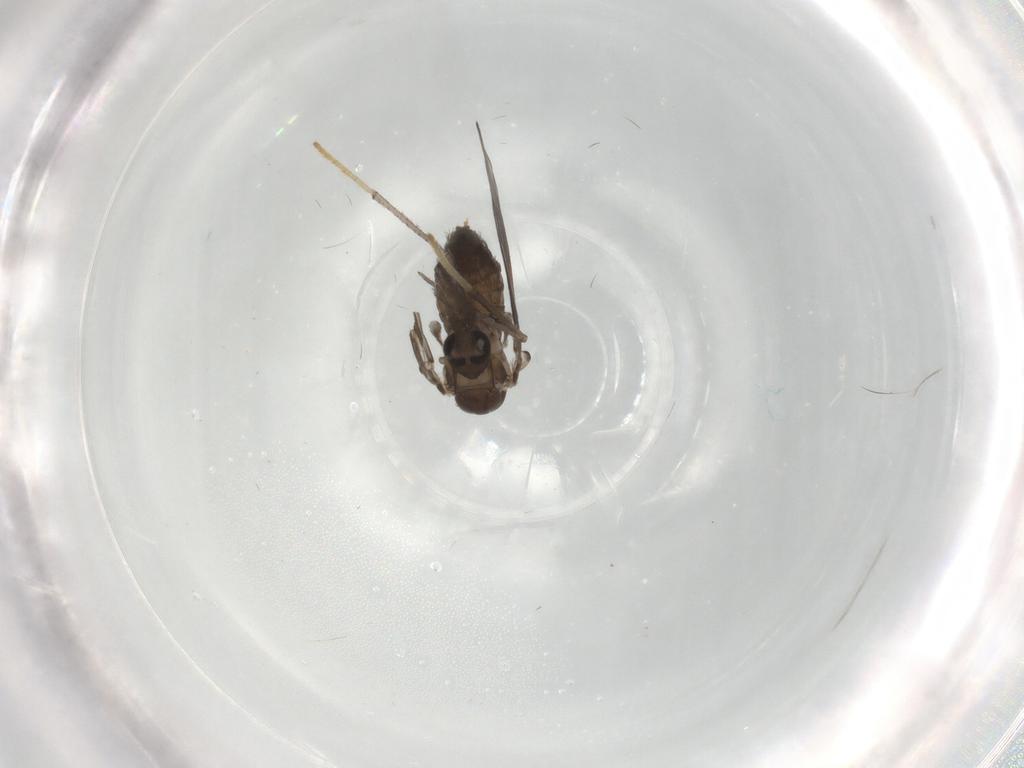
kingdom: Animalia
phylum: Arthropoda
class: Insecta
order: Diptera
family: Psychodidae
